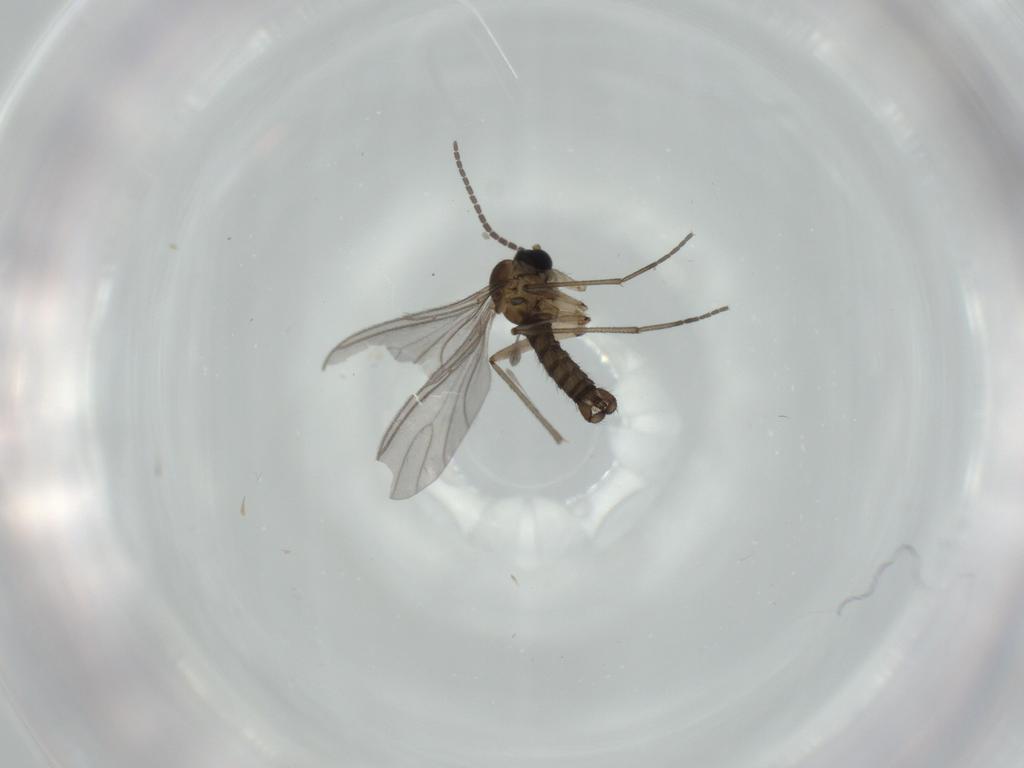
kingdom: Animalia
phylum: Arthropoda
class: Insecta
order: Diptera
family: Sciaridae
